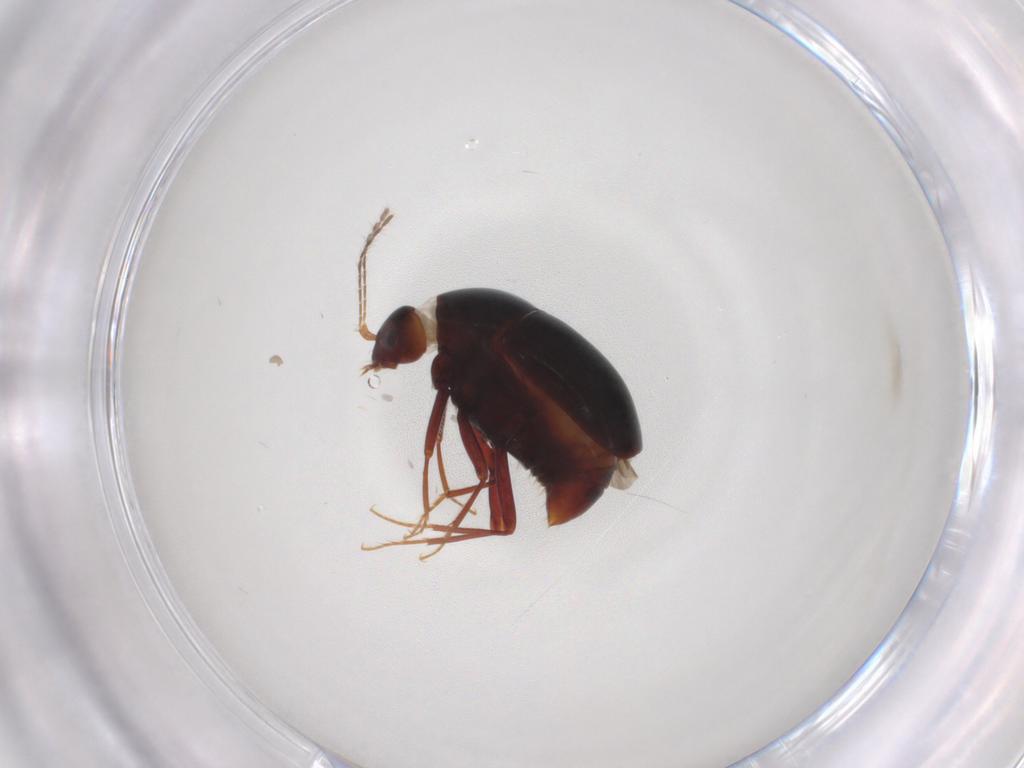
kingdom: Animalia
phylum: Arthropoda
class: Insecta
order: Coleoptera
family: Staphylinidae
